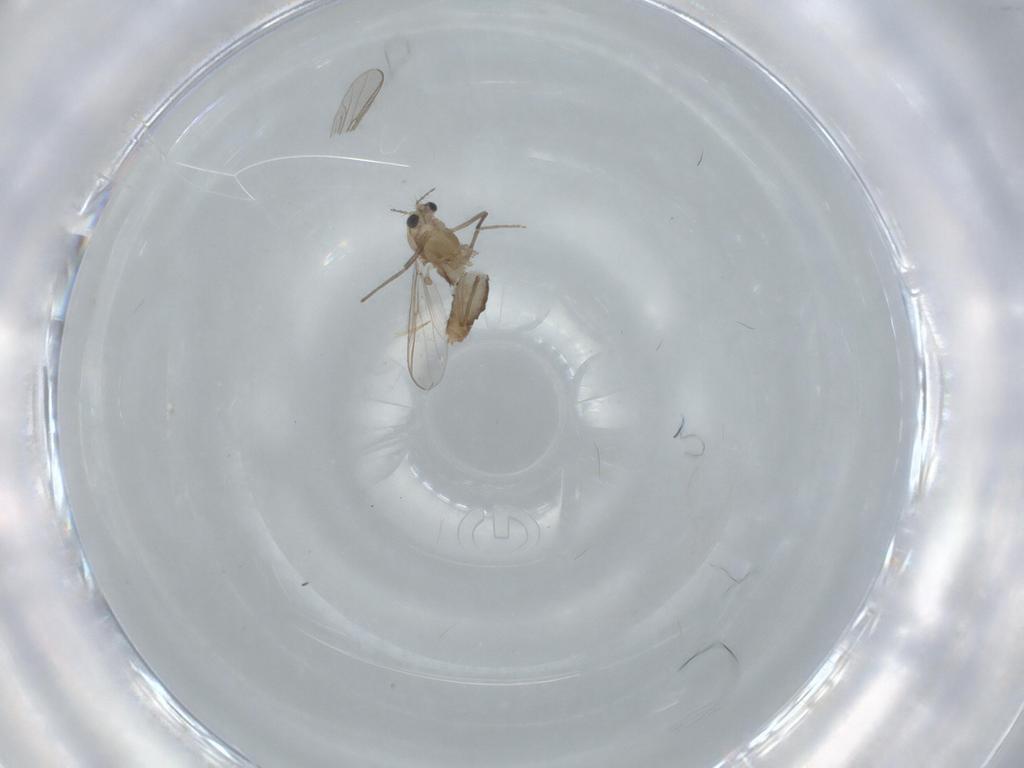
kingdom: Animalia
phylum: Arthropoda
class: Insecta
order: Diptera
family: Chironomidae
